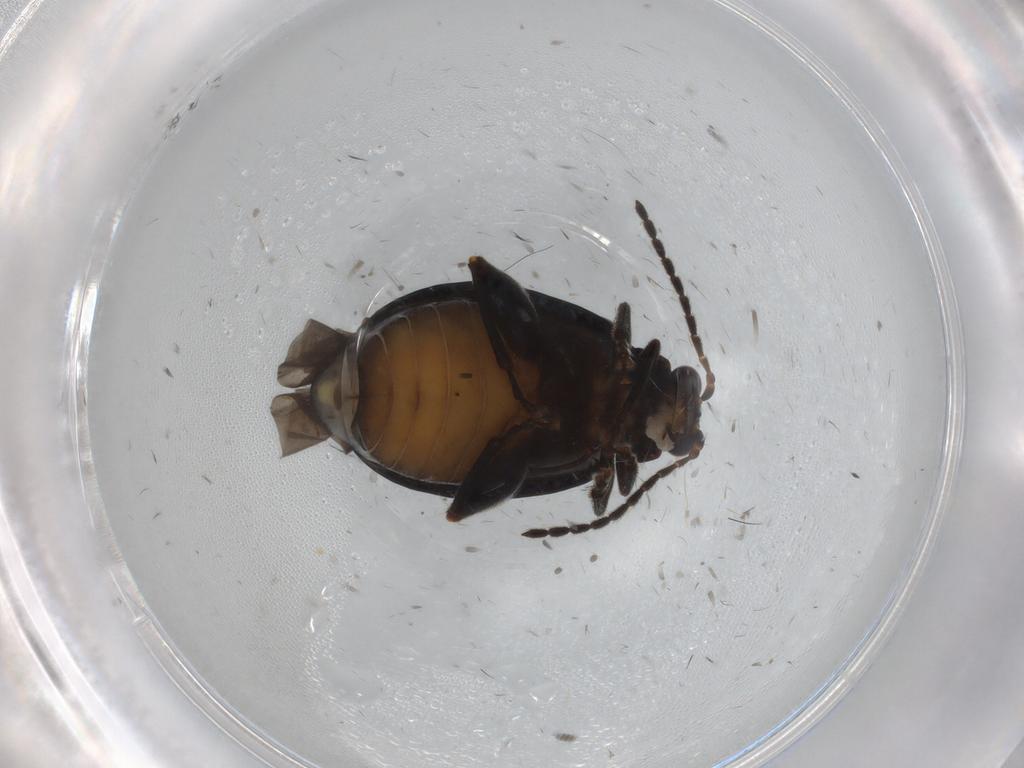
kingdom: Animalia
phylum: Arthropoda
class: Insecta
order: Coleoptera
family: Chrysomelidae
